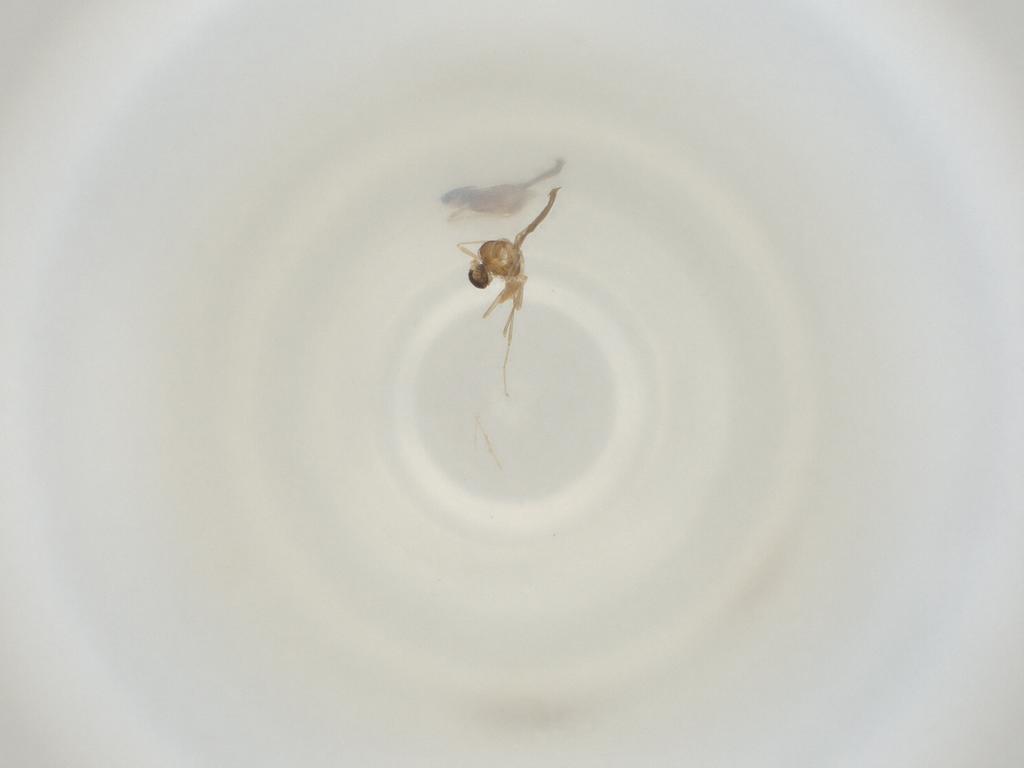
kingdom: Animalia
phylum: Arthropoda
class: Insecta
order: Diptera
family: Cecidomyiidae
